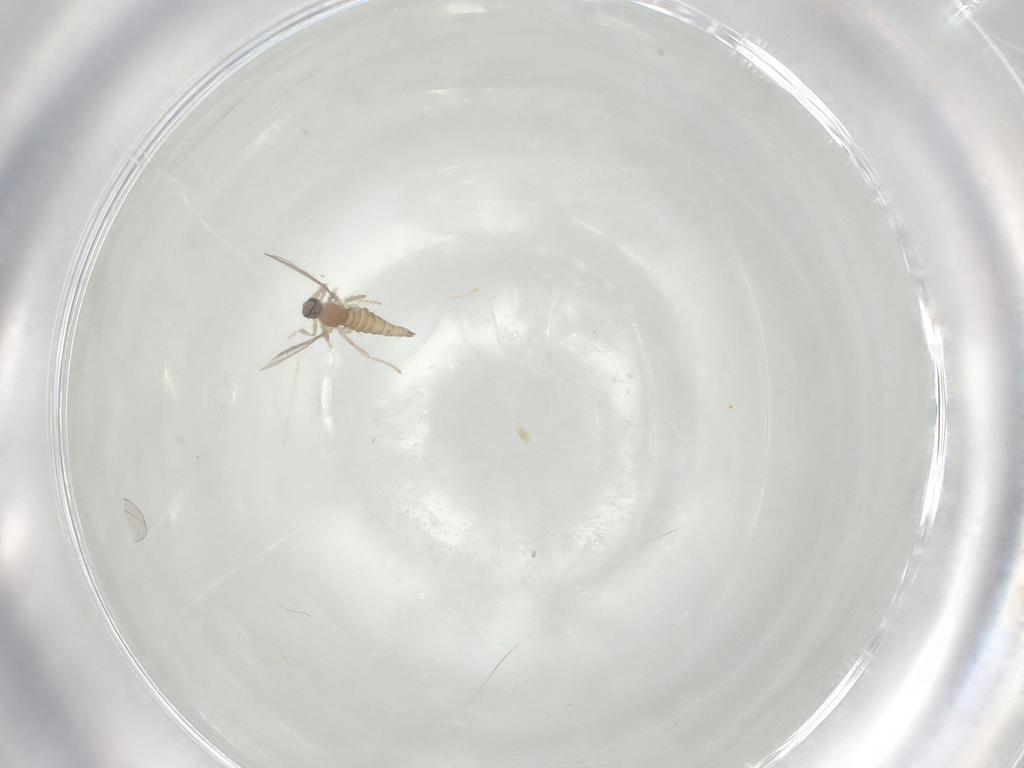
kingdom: Animalia
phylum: Arthropoda
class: Insecta
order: Diptera
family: Cecidomyiidae
